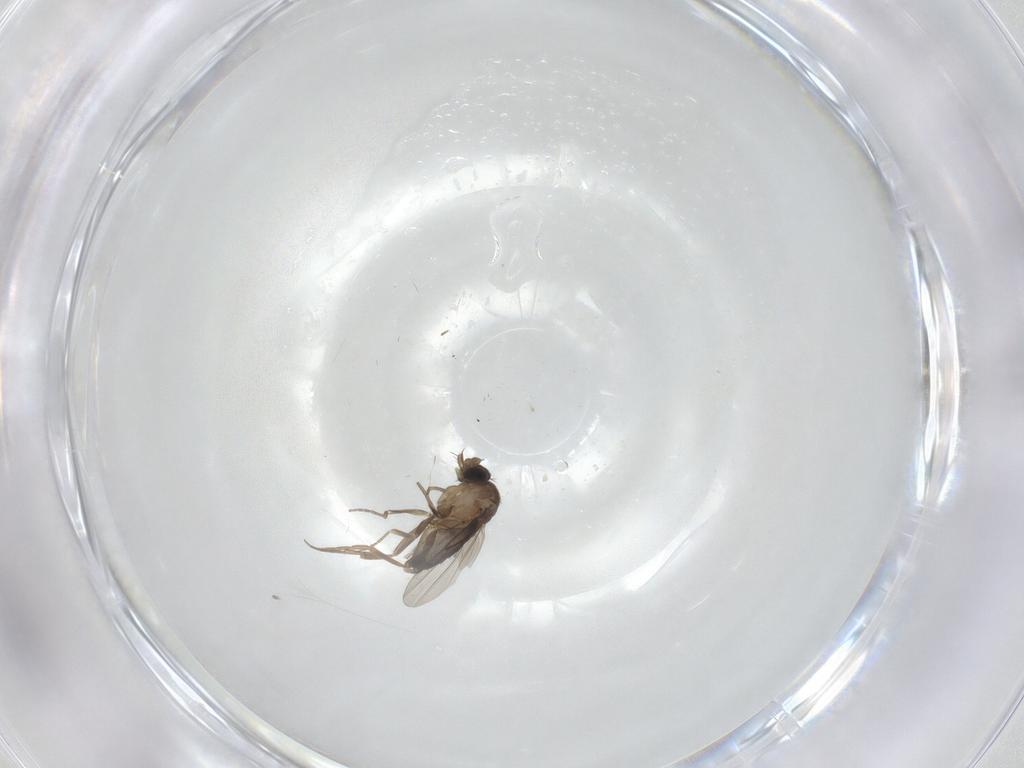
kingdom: Animalia
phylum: Arthropoda
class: Insecta
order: Diptera
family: Phoridae
